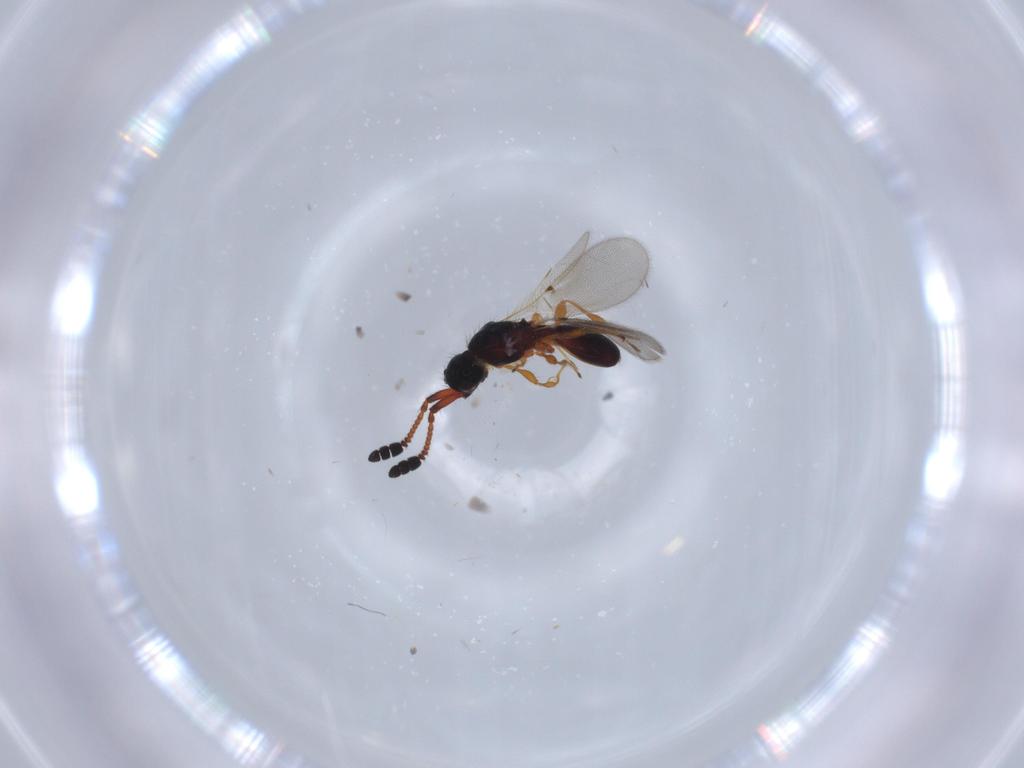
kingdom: Animalia
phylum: Arthropoda
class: Insecta
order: Hymenoptera
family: Diapriidae
